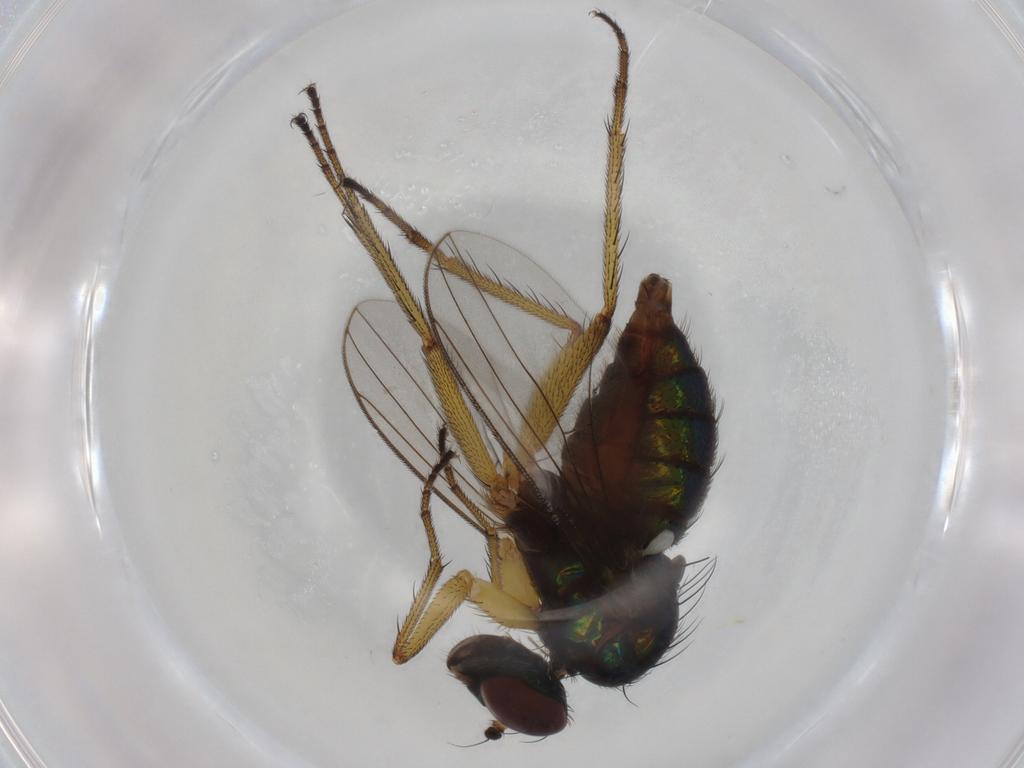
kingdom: Animalia
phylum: Arthropoda
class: Insecta
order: Diptera
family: Ceratopogonidae
